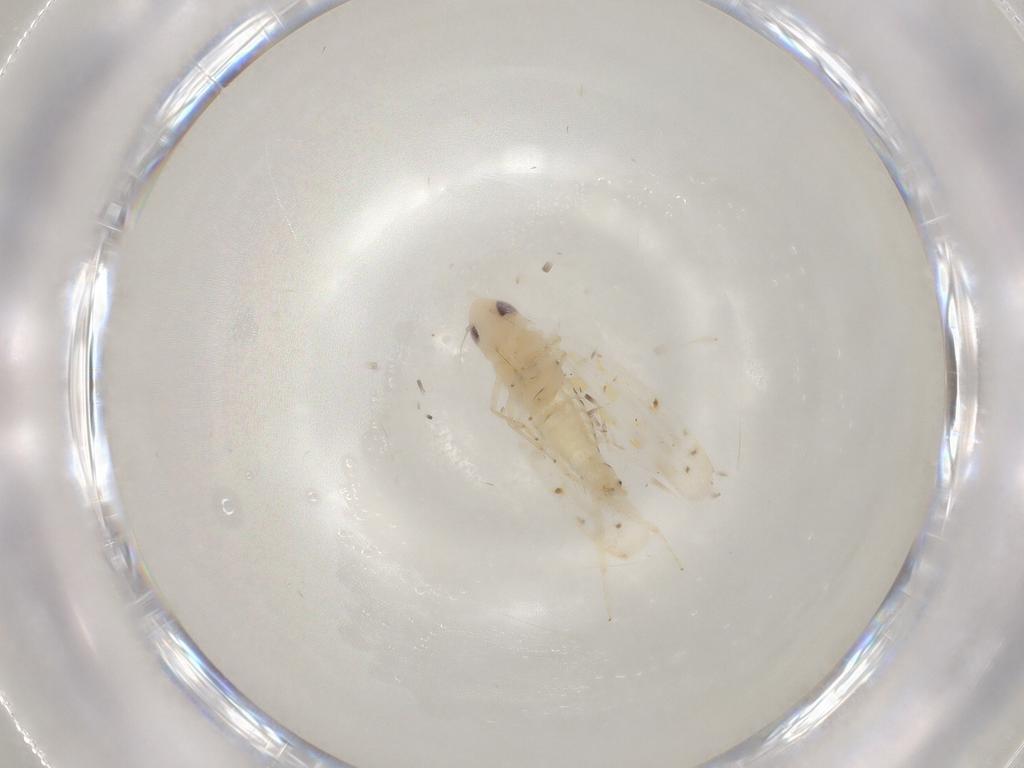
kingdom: Animalia
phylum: Arthropoda
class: Insecta
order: Hemiptera
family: Cicadellidae
